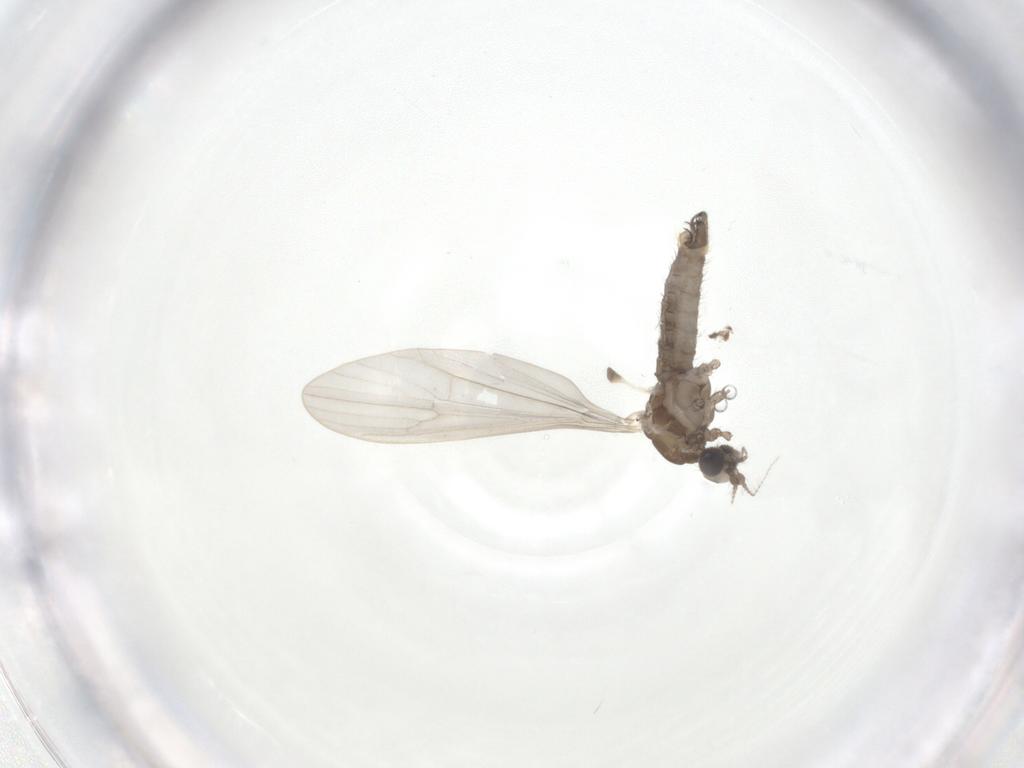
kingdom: Animalia
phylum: Arthropoda
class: Insecta
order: Diptera
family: Limoniidae
